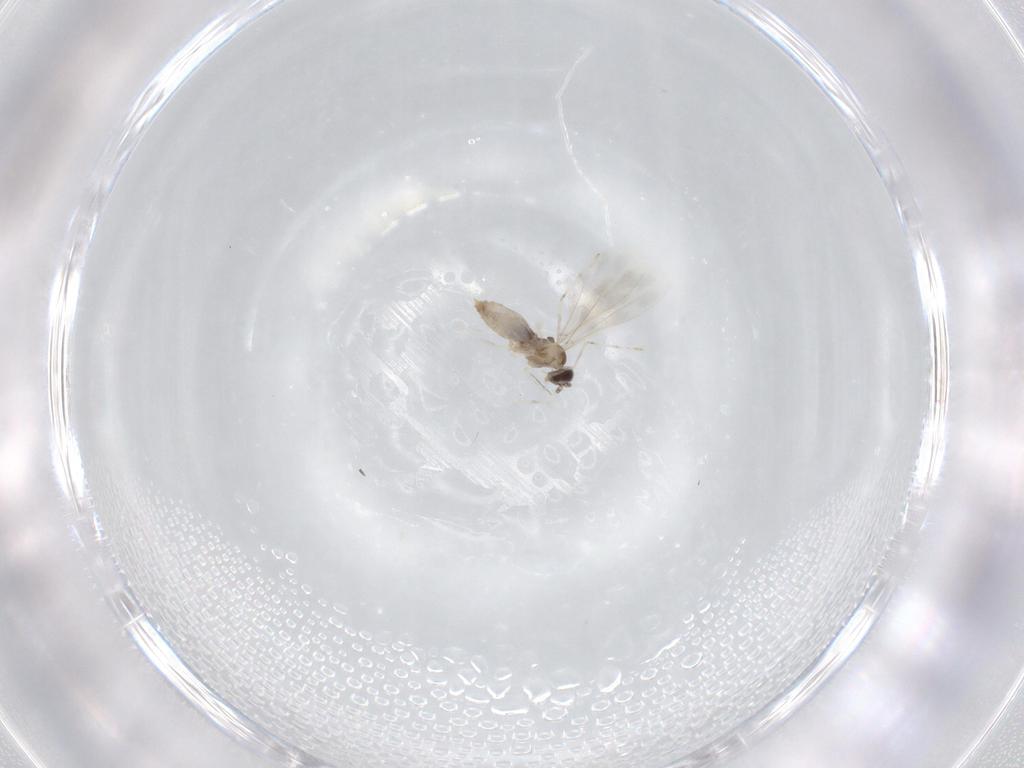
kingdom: Animalia
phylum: Arthropoda
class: Insecta
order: Diptera
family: Cecidomyiidae
